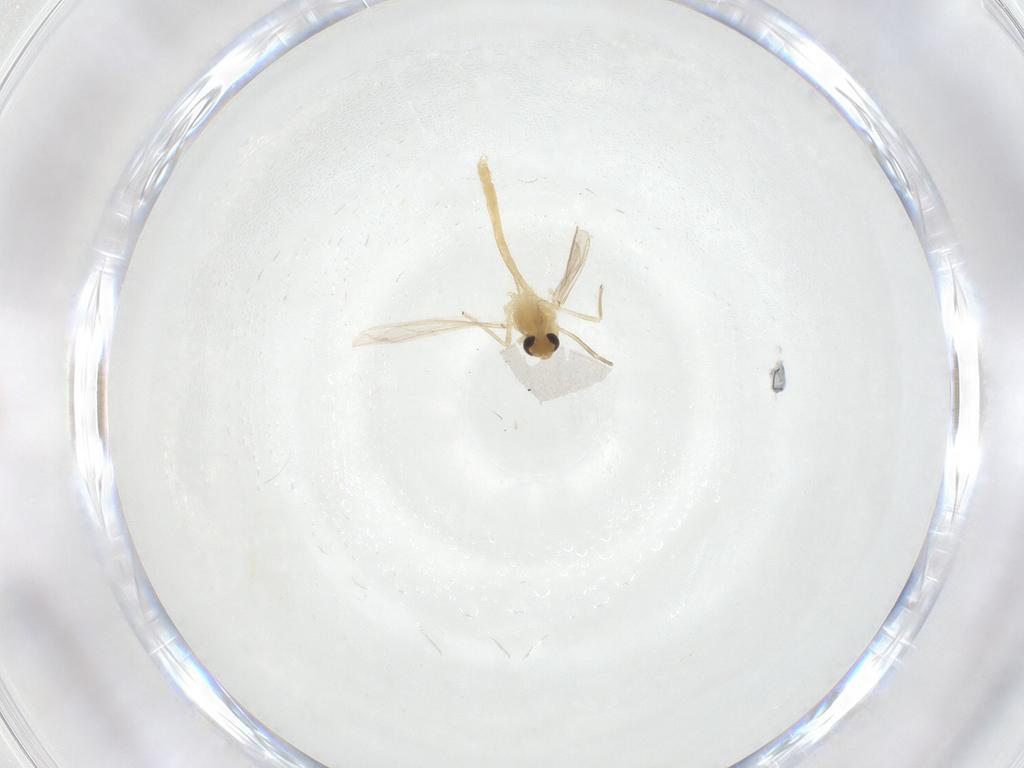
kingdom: Animalia
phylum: Arthropoda
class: Insecta
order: Diptera
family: Chironomidae
